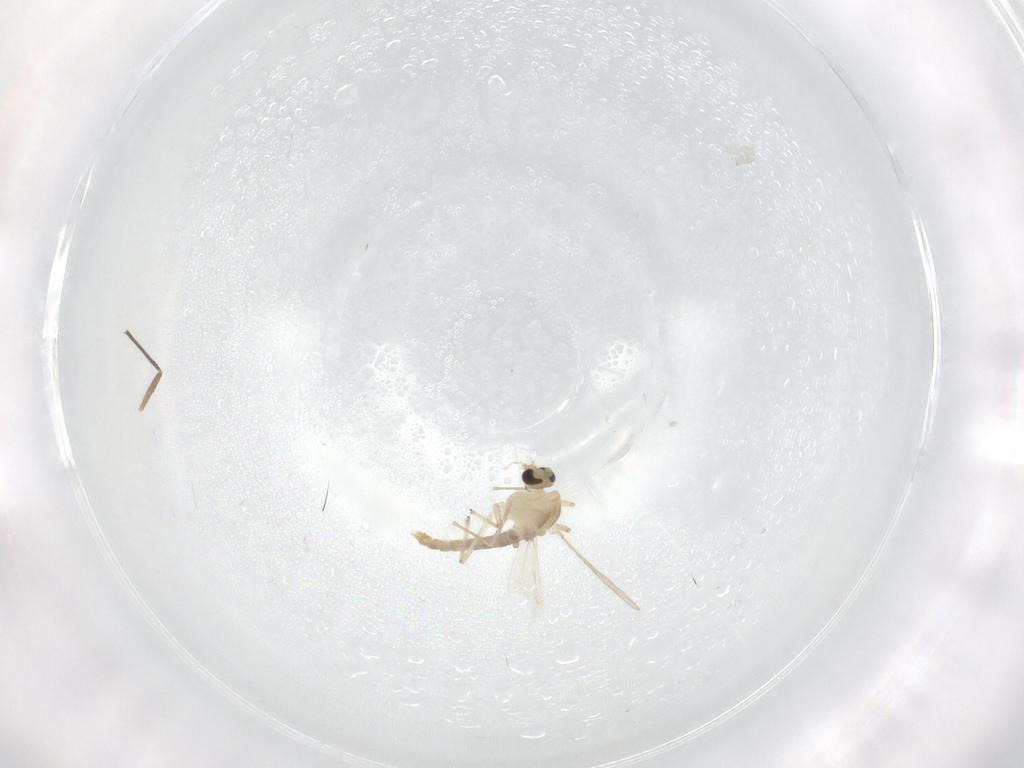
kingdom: Animalia
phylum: Arthropoda
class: Insecta
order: Diptera
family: Chironomidae
